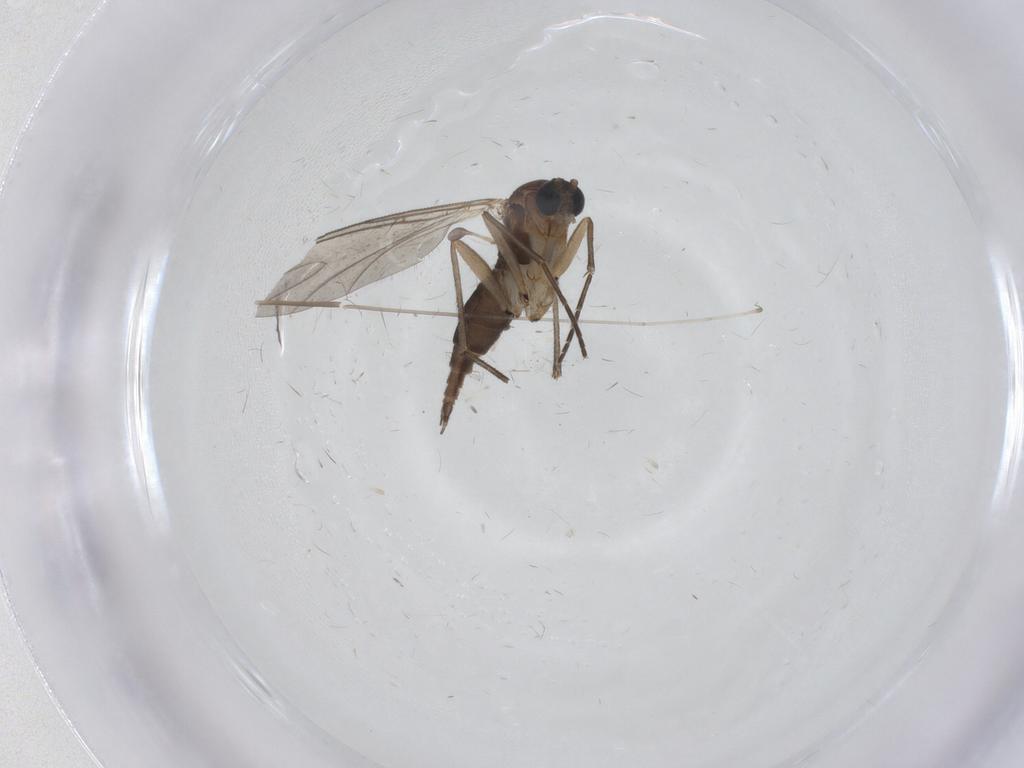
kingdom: Animalia
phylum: Arthropoda
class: Insecta
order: Diptera
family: Sciaridae
